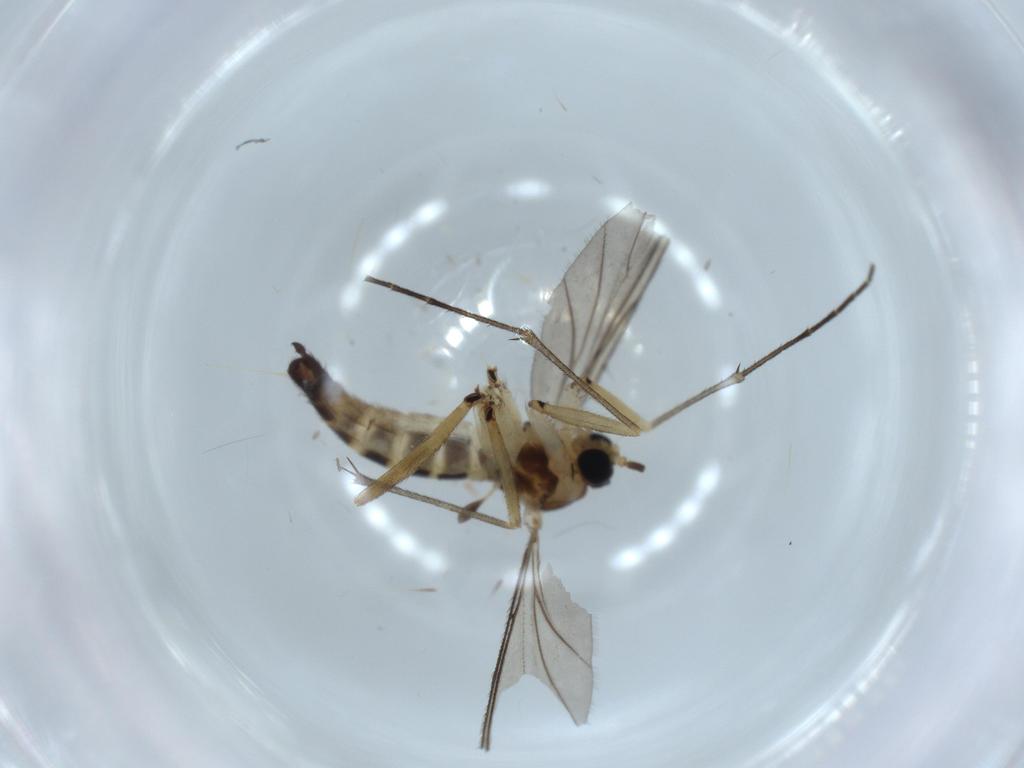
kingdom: Animalia
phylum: Arthropoda
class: Insecta
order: Diptera
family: Sciaridae
